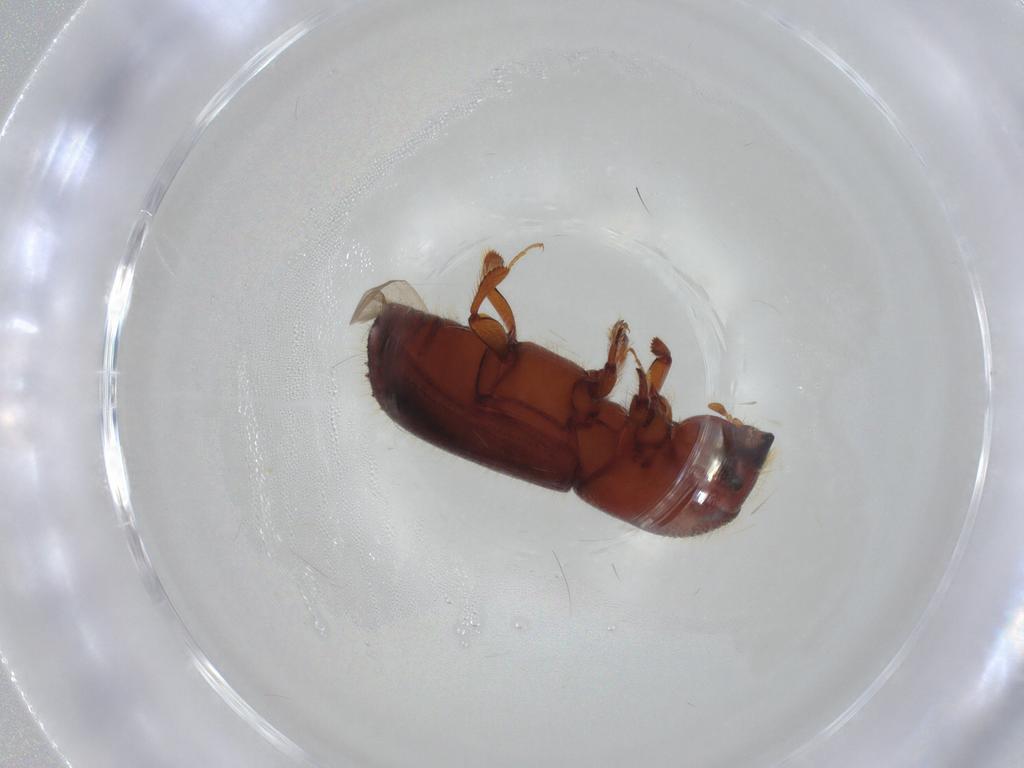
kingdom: Animalia
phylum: Arthropoda
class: Insecta
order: Coleoptera
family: Curculionidae
